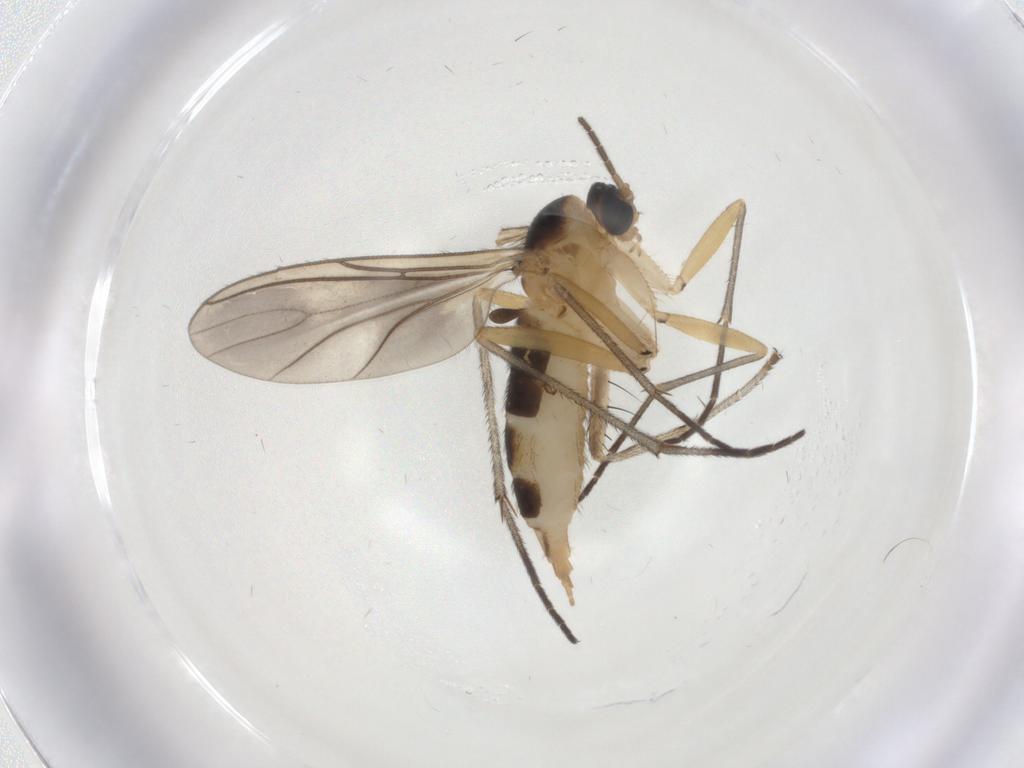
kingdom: Animalia
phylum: Arthropoda
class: Insecta
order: Diptera
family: Sciaridae
